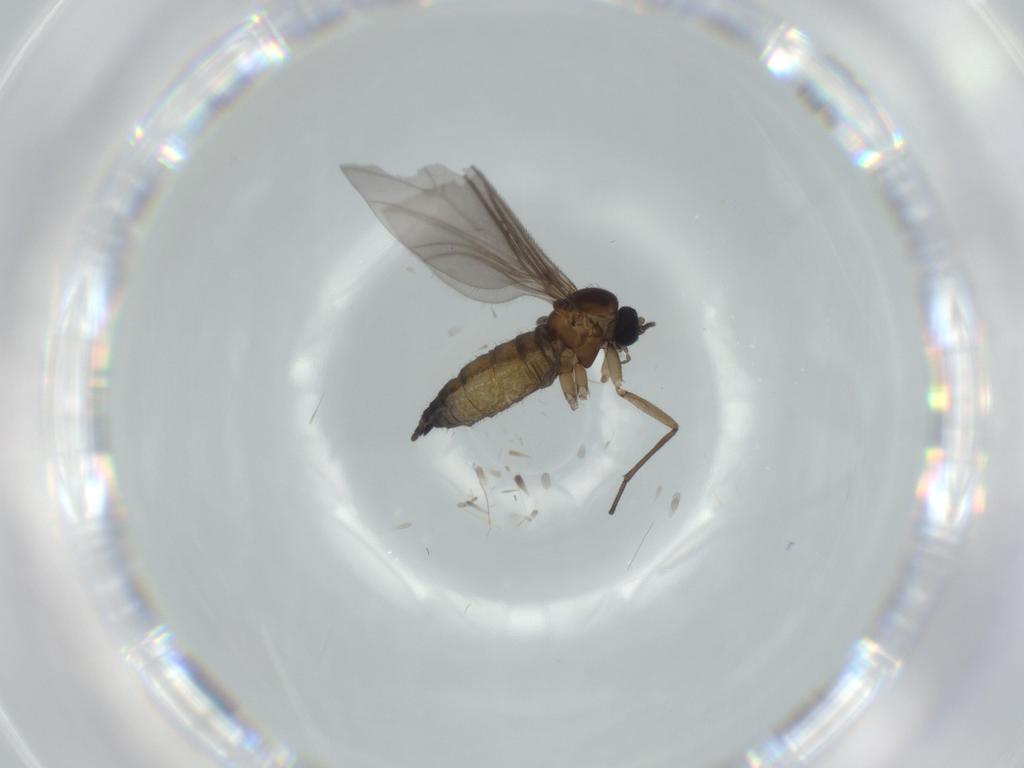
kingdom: Animalia
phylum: Arthropoda
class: Insecta
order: Diptera
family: Sciaridae
